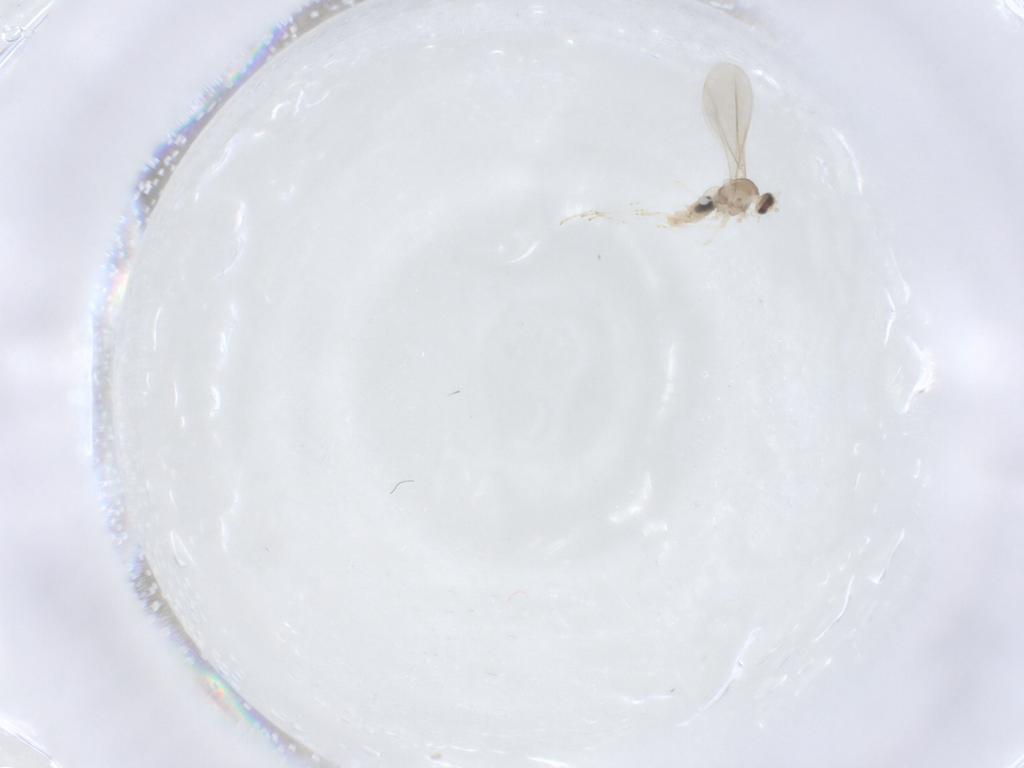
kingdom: Animalia
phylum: Arthropoda
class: Insecta
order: Diptera
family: Cecidomyiidae
